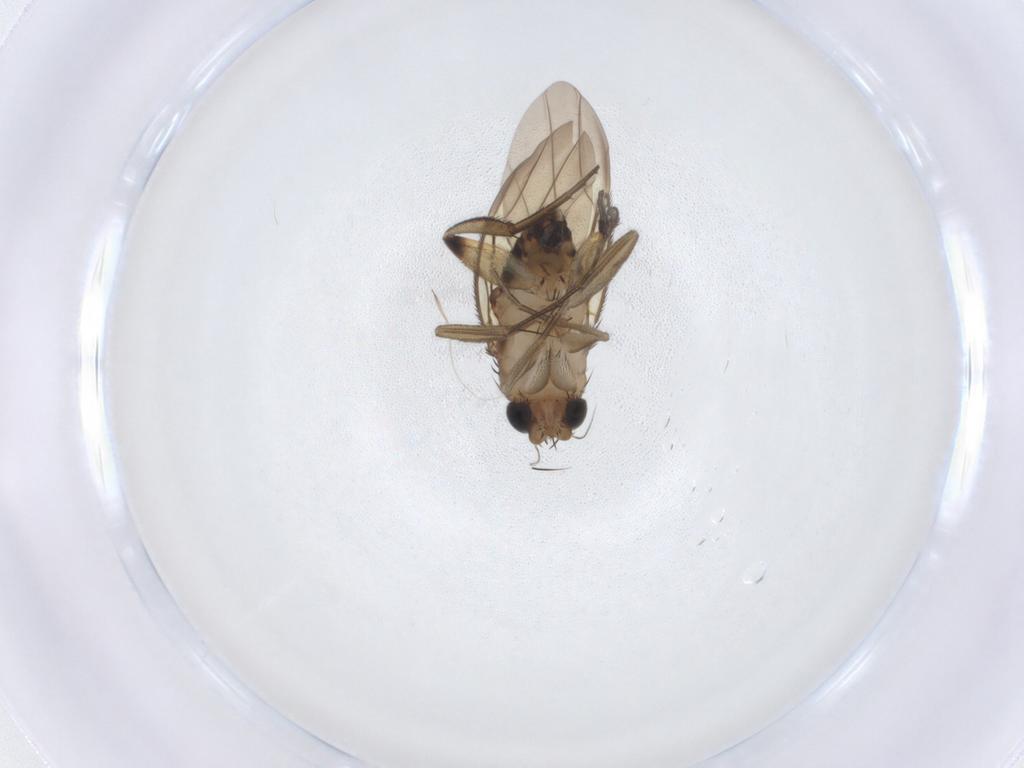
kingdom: Animalia
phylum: Arthropoda
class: Insecta
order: Diptera
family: Phoridae
